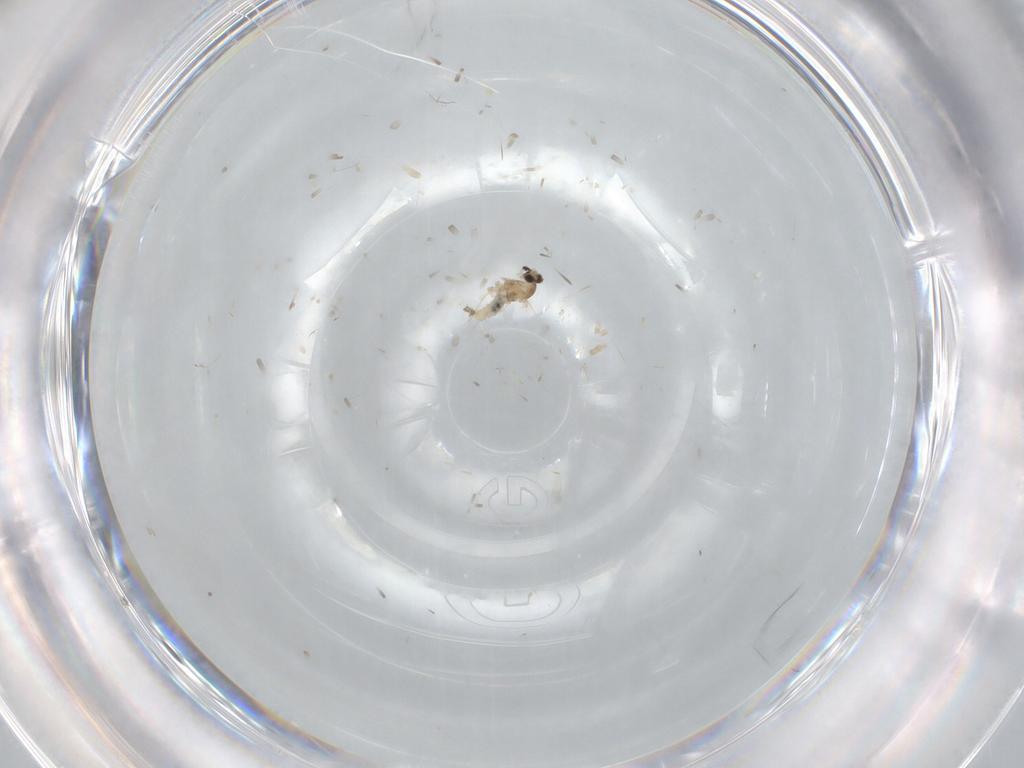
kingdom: Animalia
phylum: Arthropoda
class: Insecta
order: Diptera
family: Cecidomyiidae
